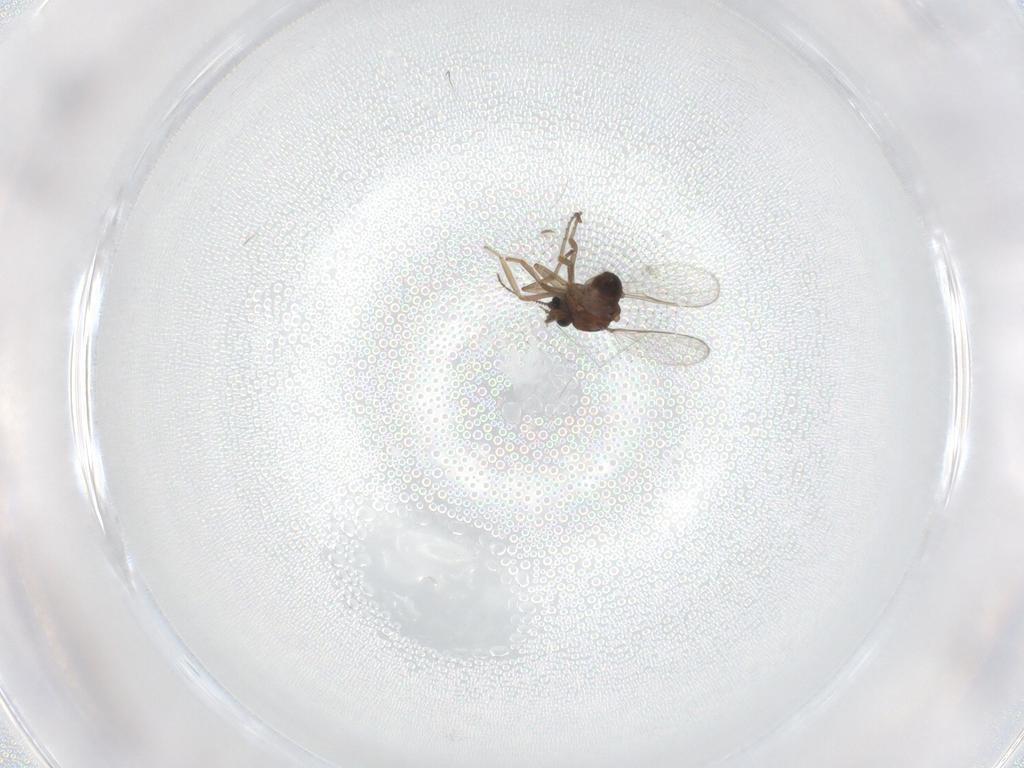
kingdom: Animalia
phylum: Arthropoda
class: Insecta
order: Diptera
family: Ceratopogonidae
